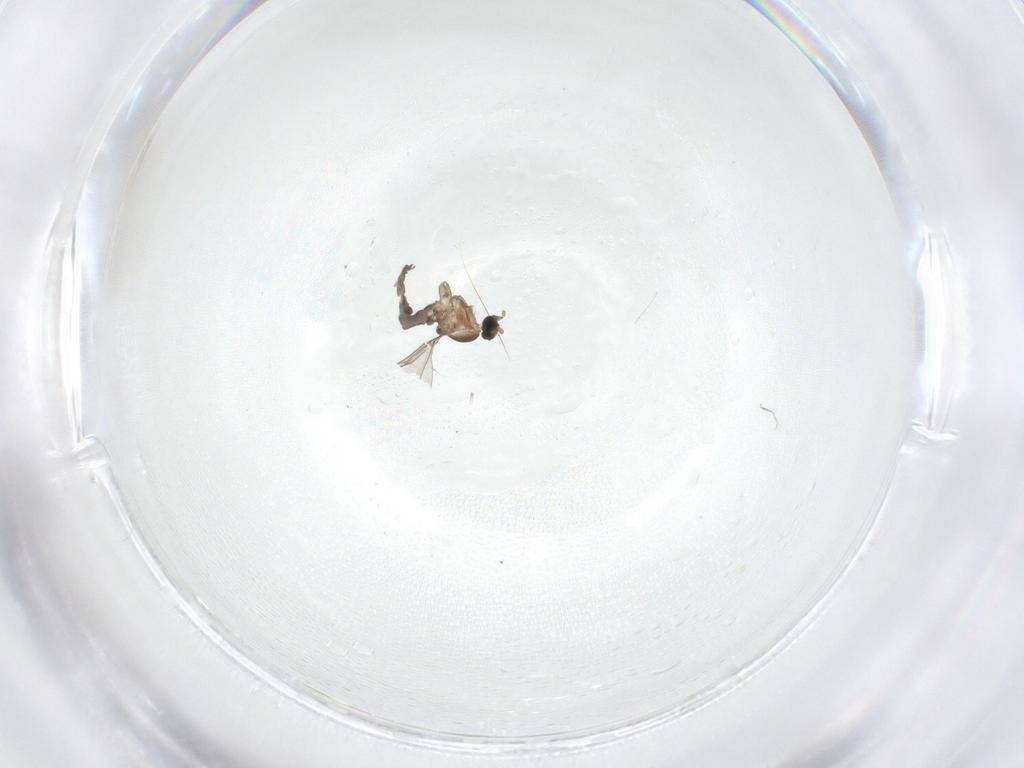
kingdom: Animalia
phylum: Arthropoda
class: Insecta
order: Diptera
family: Cecidomyiidae
